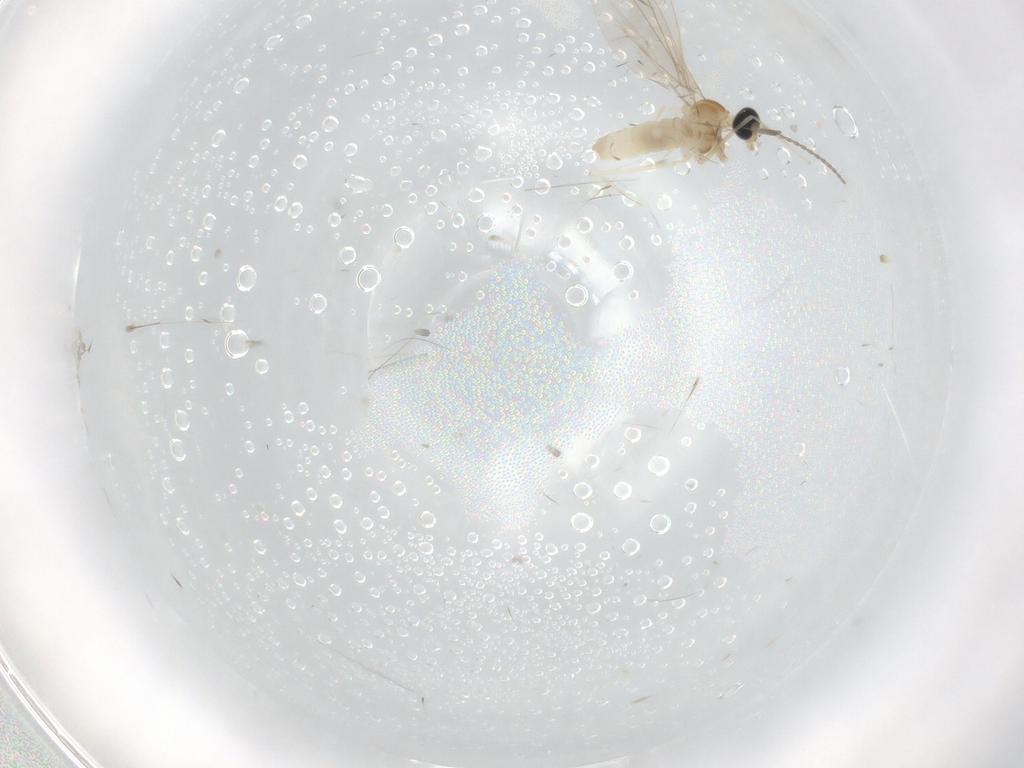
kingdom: Animalia
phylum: Arthropoda
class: Insecta
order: Diptera
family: Cecidomyiidae
